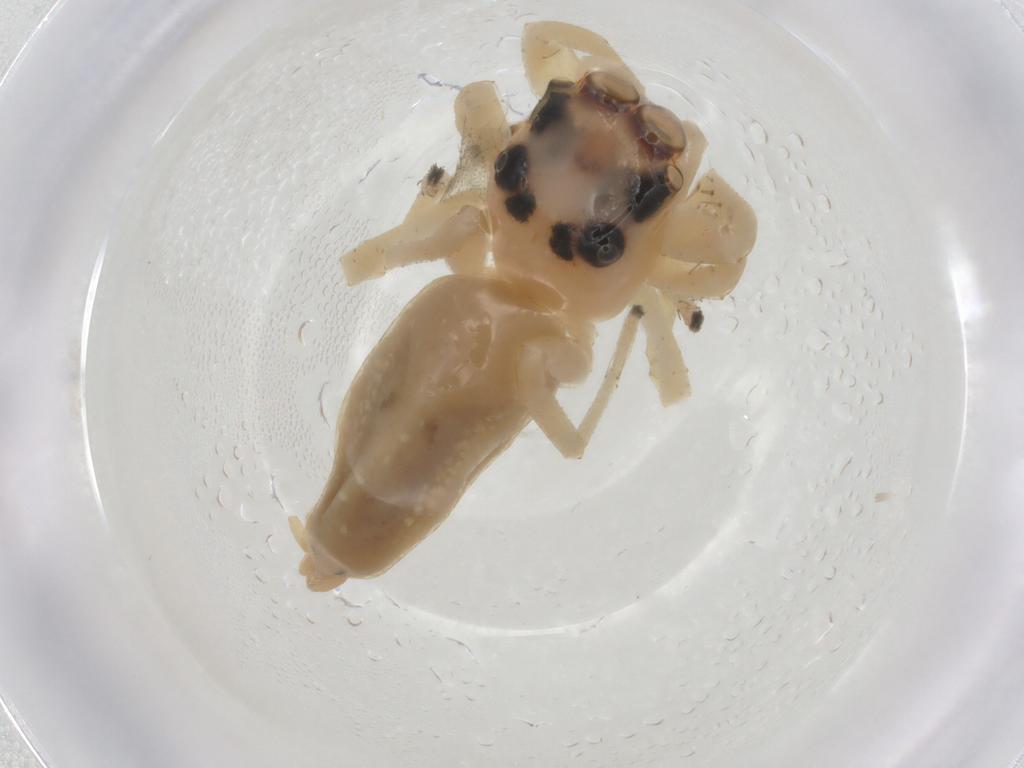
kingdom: Animalia
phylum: Arthropoda
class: Arachnida
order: Araneae
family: Salticidae
